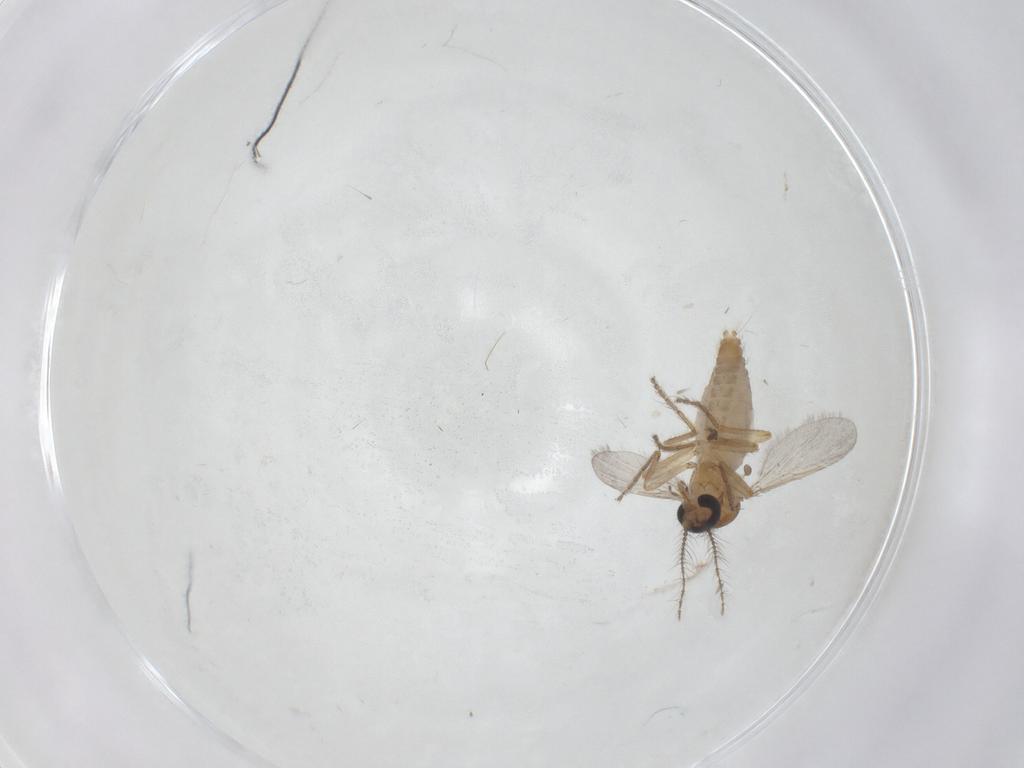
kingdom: Animalia
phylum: Arthropoda
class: Insecta
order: Diptera
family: Ceratopogonidae
